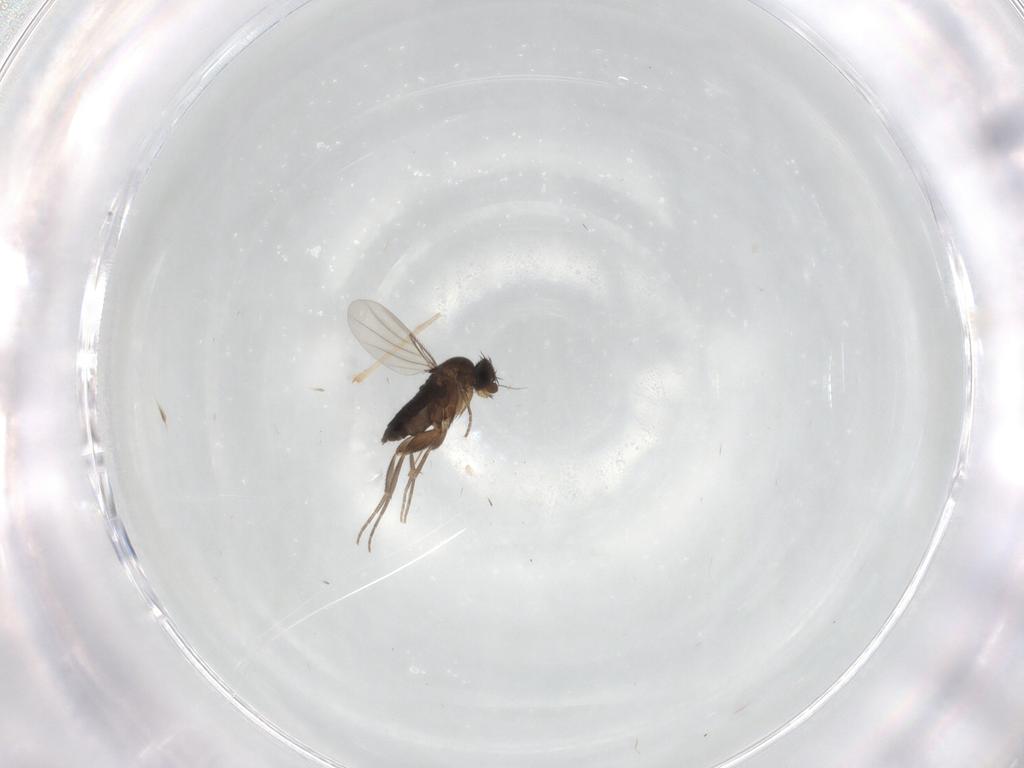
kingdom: Animalia
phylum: Arthropoda
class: Insecta
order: Diptera
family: Phoridae
